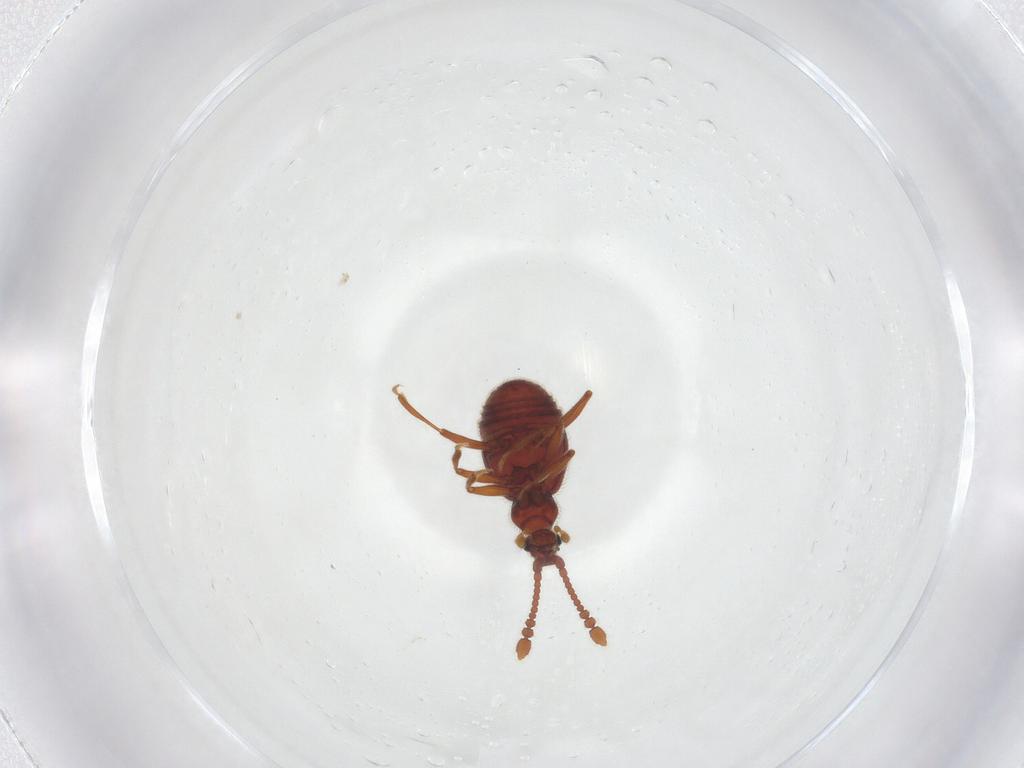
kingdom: Animalia
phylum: Arthropoda
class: Insecta
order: Coleoptera
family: Staphylinidae
